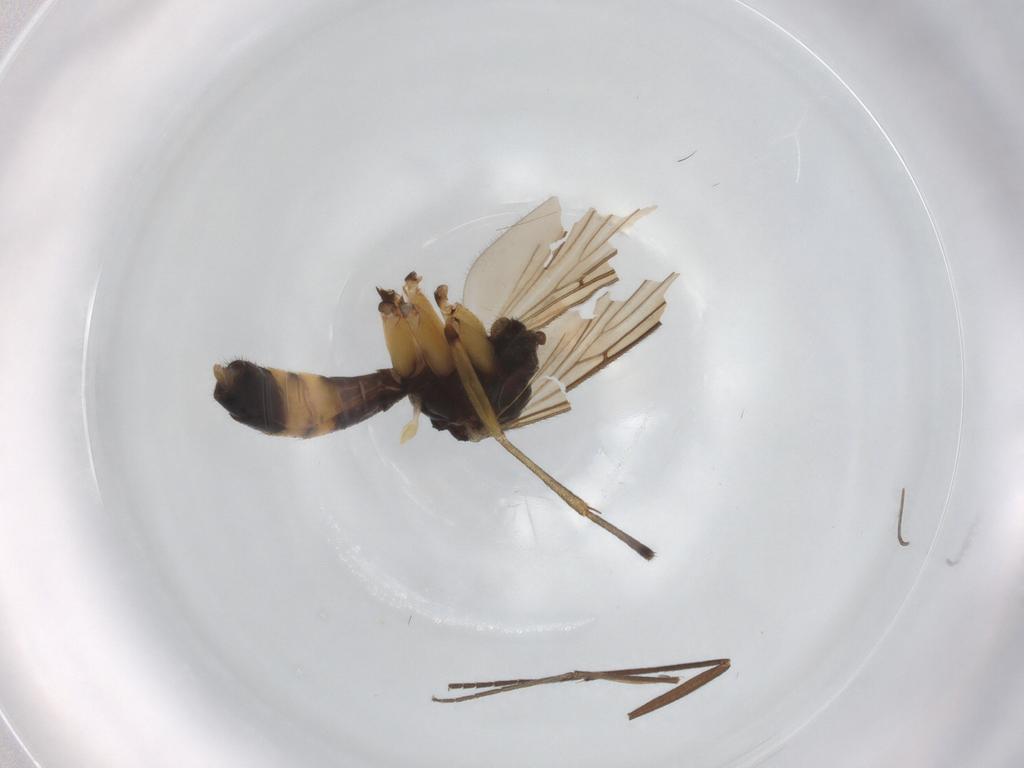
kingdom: Animalia
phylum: Arthropoda
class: Insecta
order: Diptera
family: Mycetophilidae
